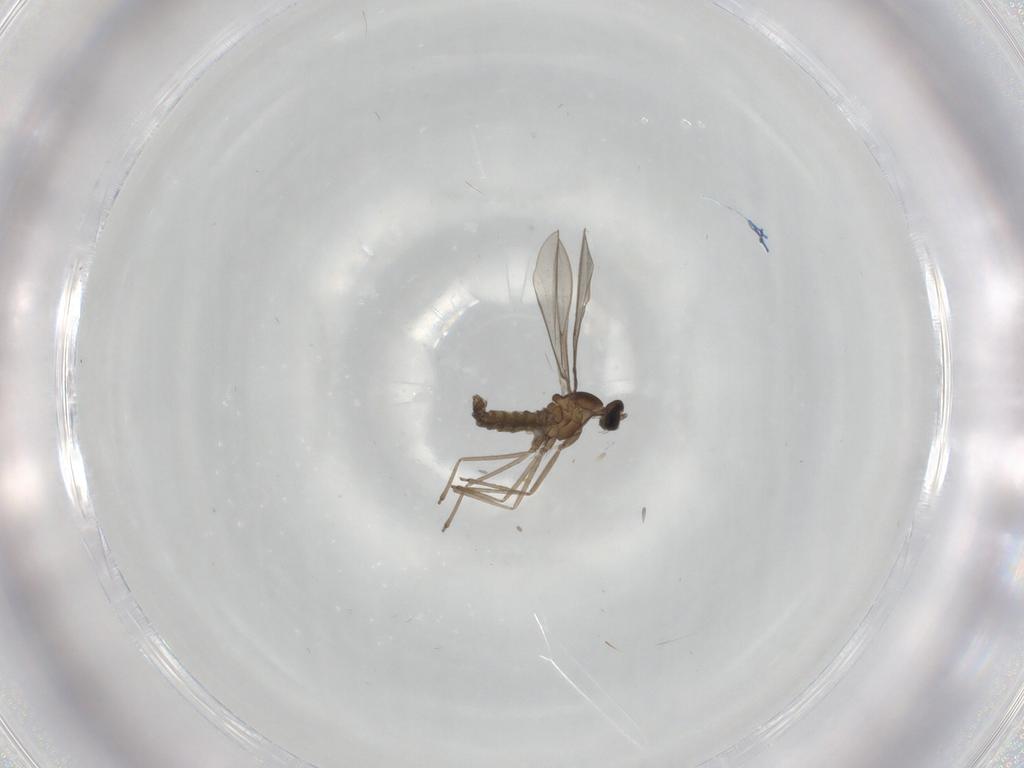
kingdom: Animalia
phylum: Arthropoda
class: Insecta
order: Diptera
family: Cecidomyiidae
